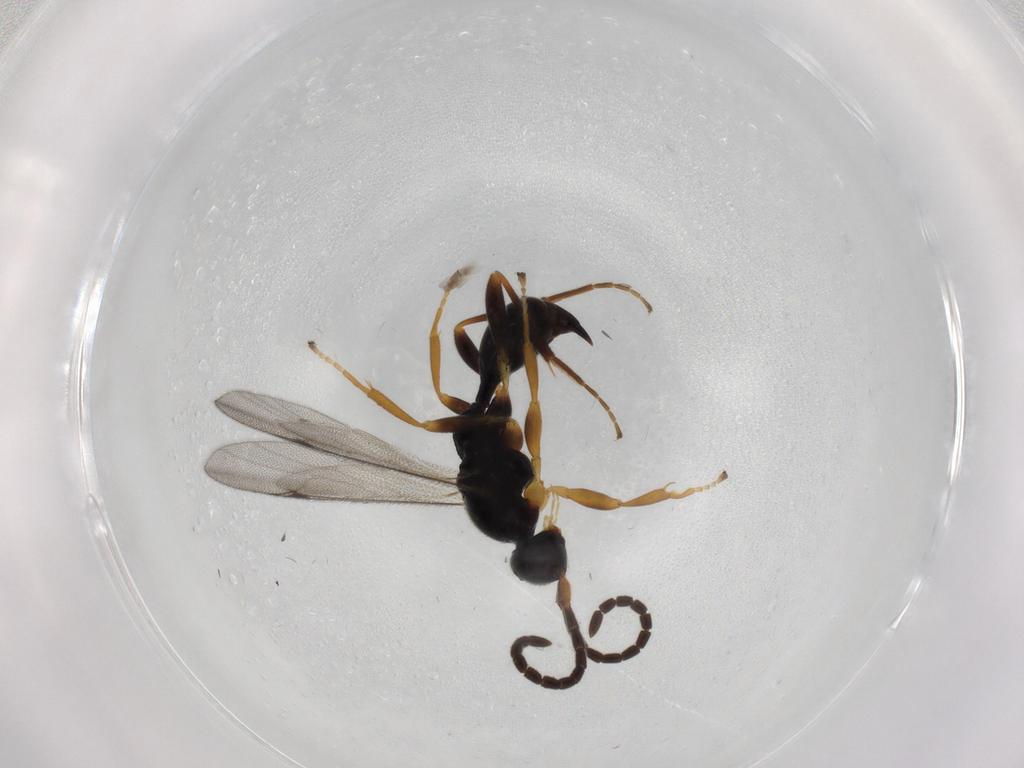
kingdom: Animalia
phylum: Arthropoda
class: Insecta
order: Hymenoptera
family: Proctotrupidae
